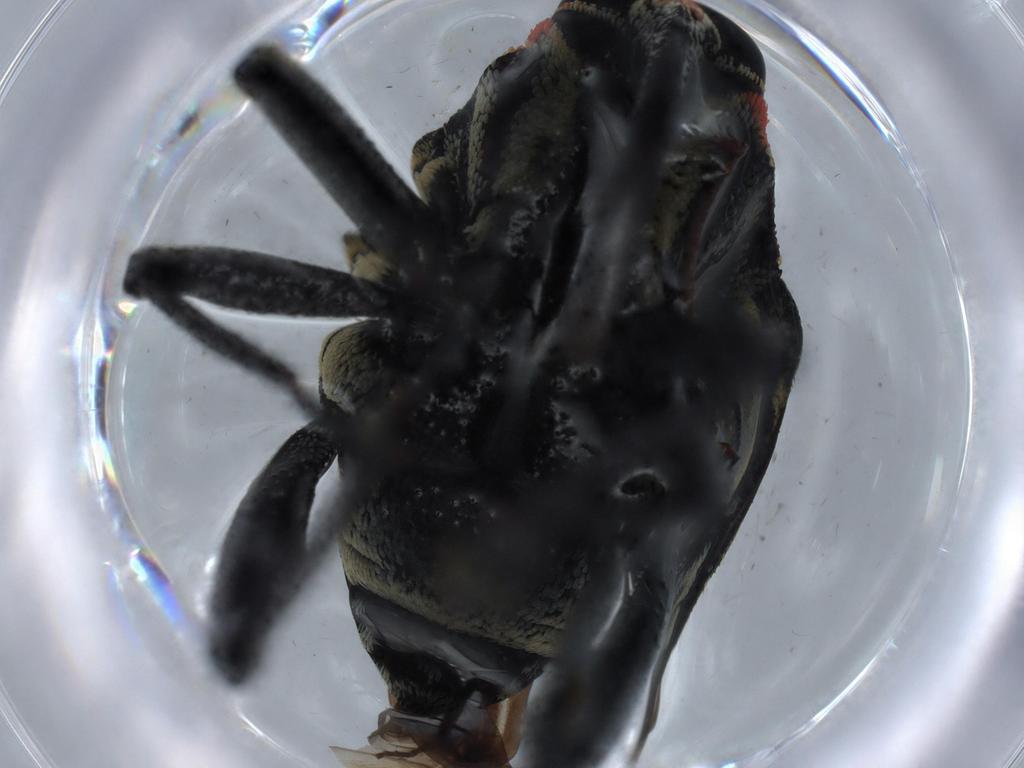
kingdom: Animalia
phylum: Arthropoda
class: Insecta
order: Coleoptera
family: Curculionidae
